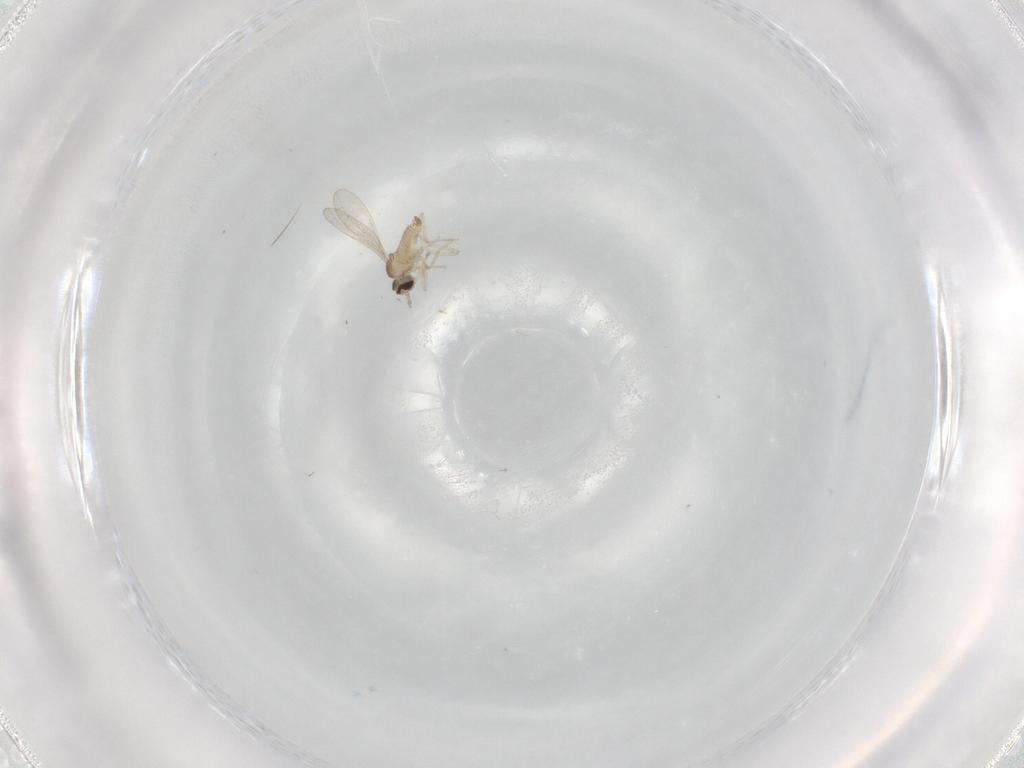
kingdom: Animalia
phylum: Arthropoda
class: Insecta
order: Diptera
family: Cecidomyiidae
